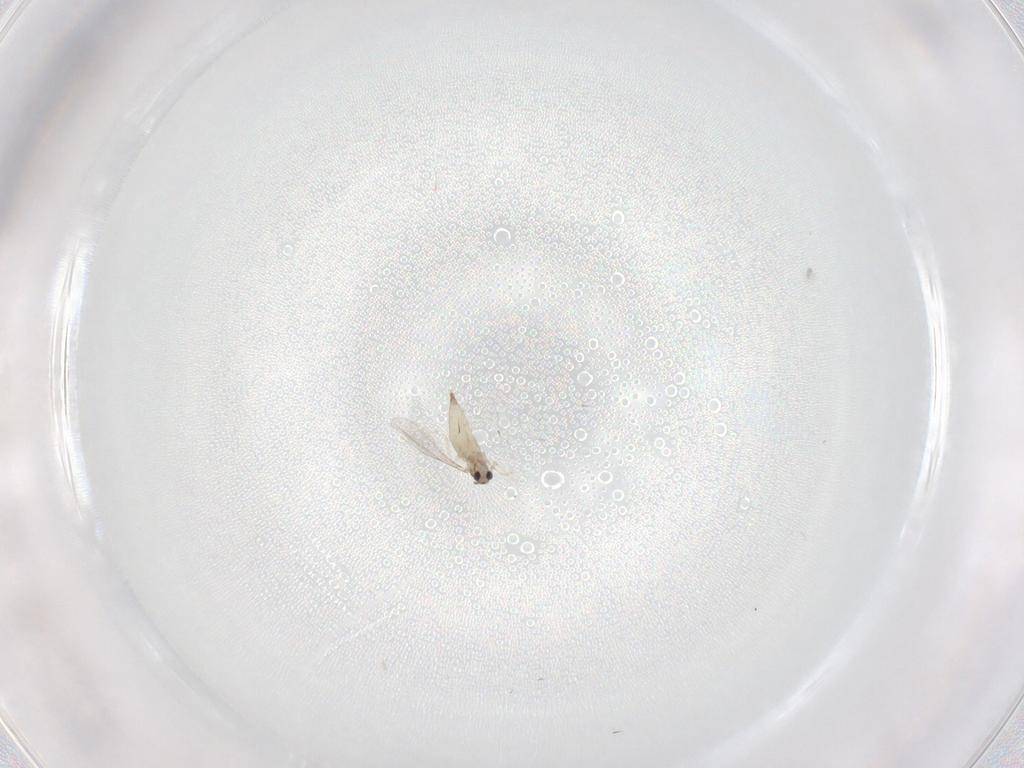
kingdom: Animalia
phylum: Arthropoda
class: Insecta
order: Diptera
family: Cecidomyiidae
